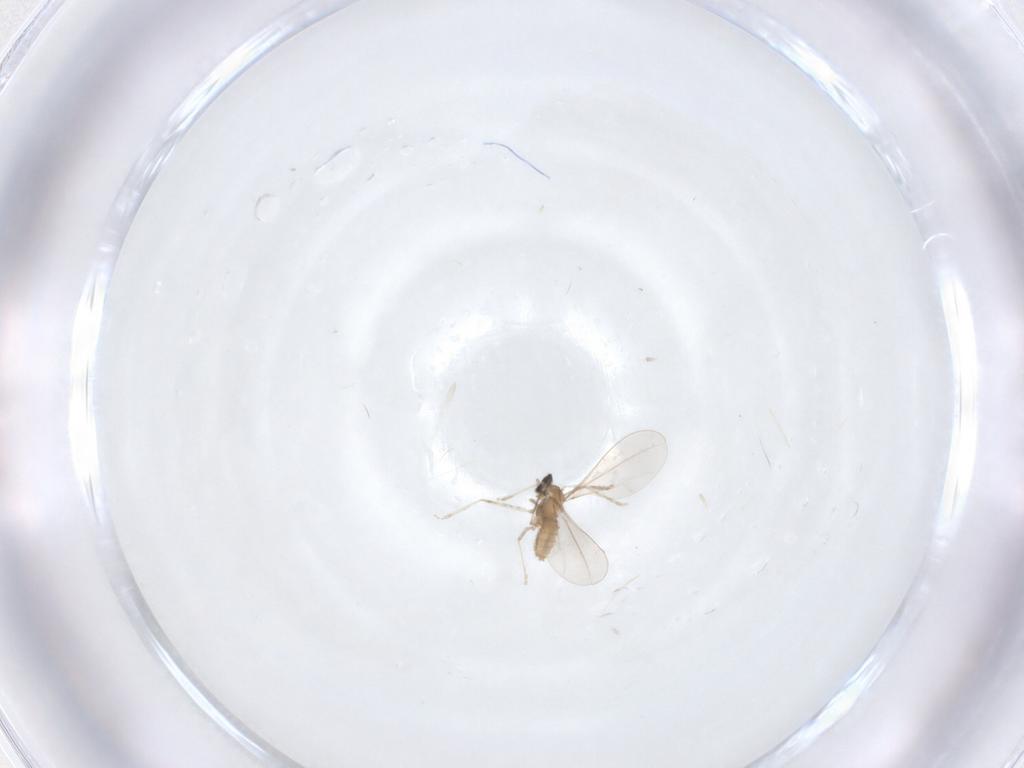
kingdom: Animalia
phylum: Arthropoda
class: Insecta
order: Diptera
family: Cecidomyiidae
